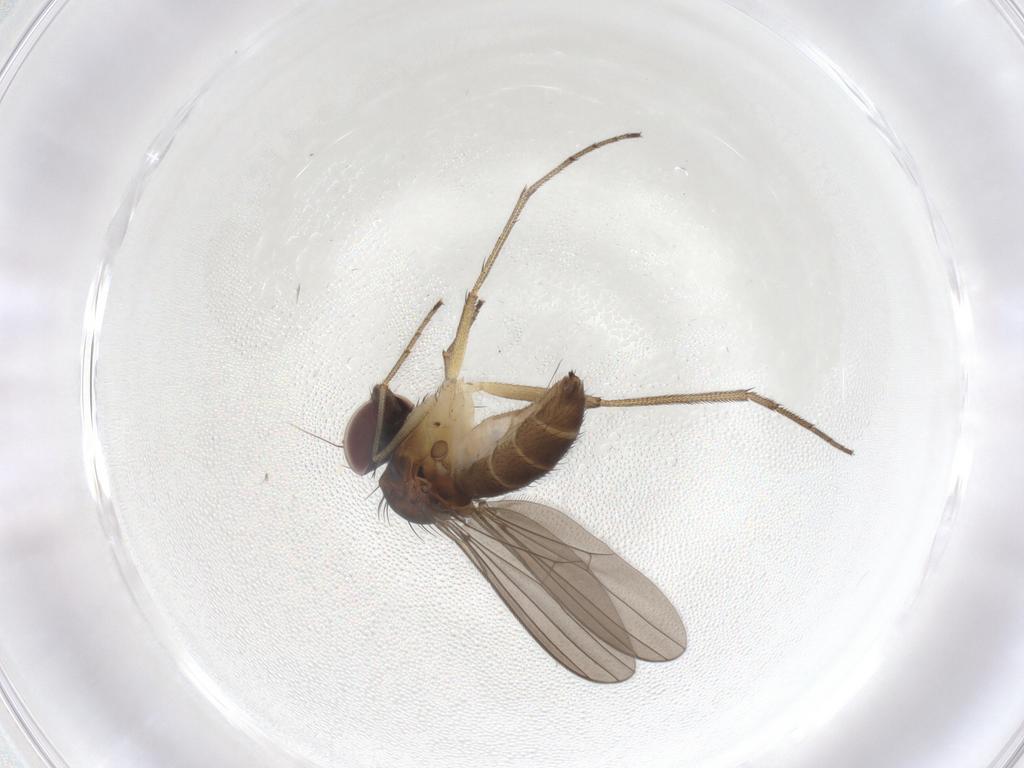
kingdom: Animalia
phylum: Arthropoda
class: Insecta
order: Diptera
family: Dolichopodidae
